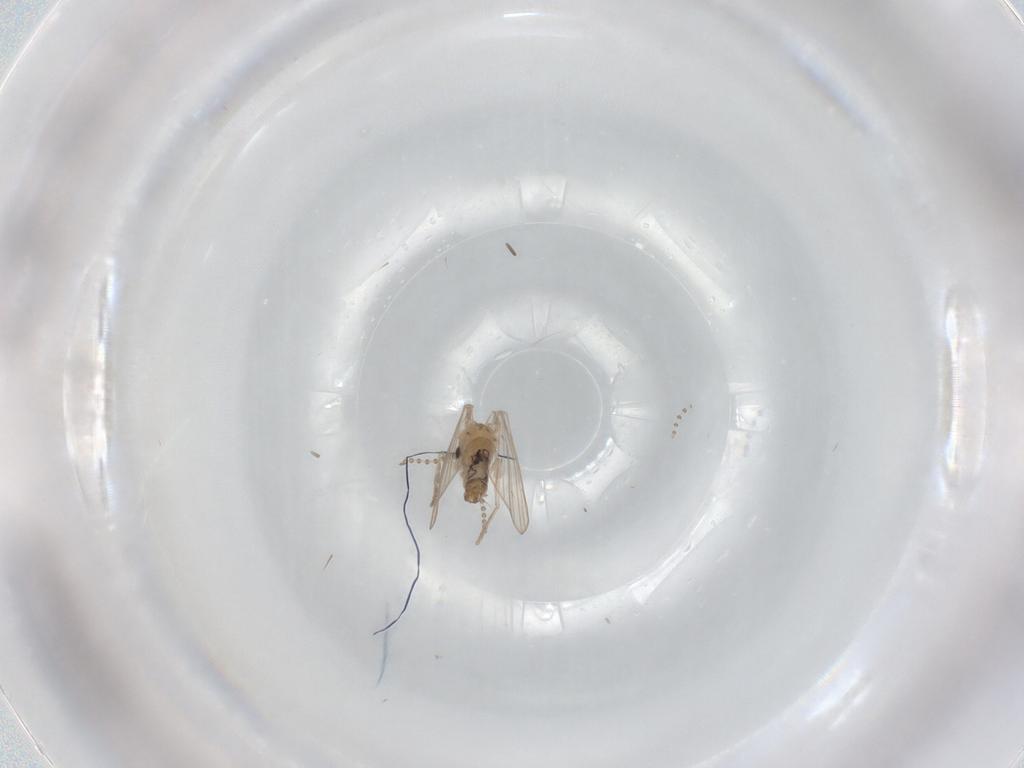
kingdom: Animalia
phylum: Arthropoda
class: Insecta
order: Diptera
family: Psychodidae
